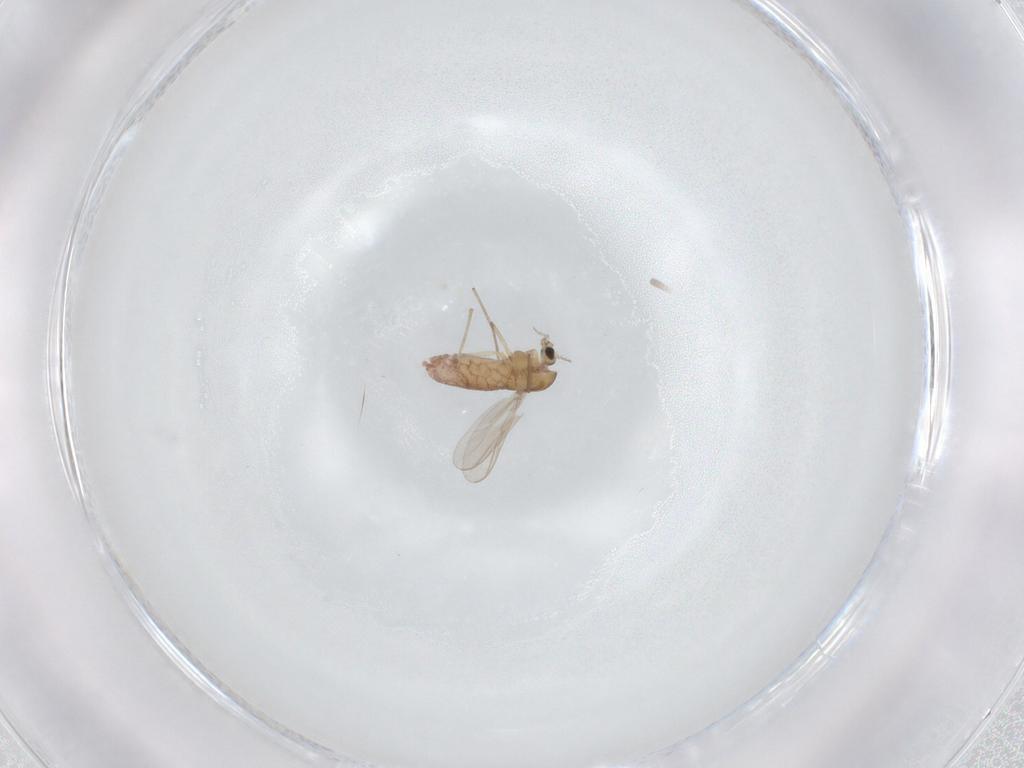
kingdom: Animalia
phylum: Arthropoda
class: Insecta
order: Diptera
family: Chironomidae
